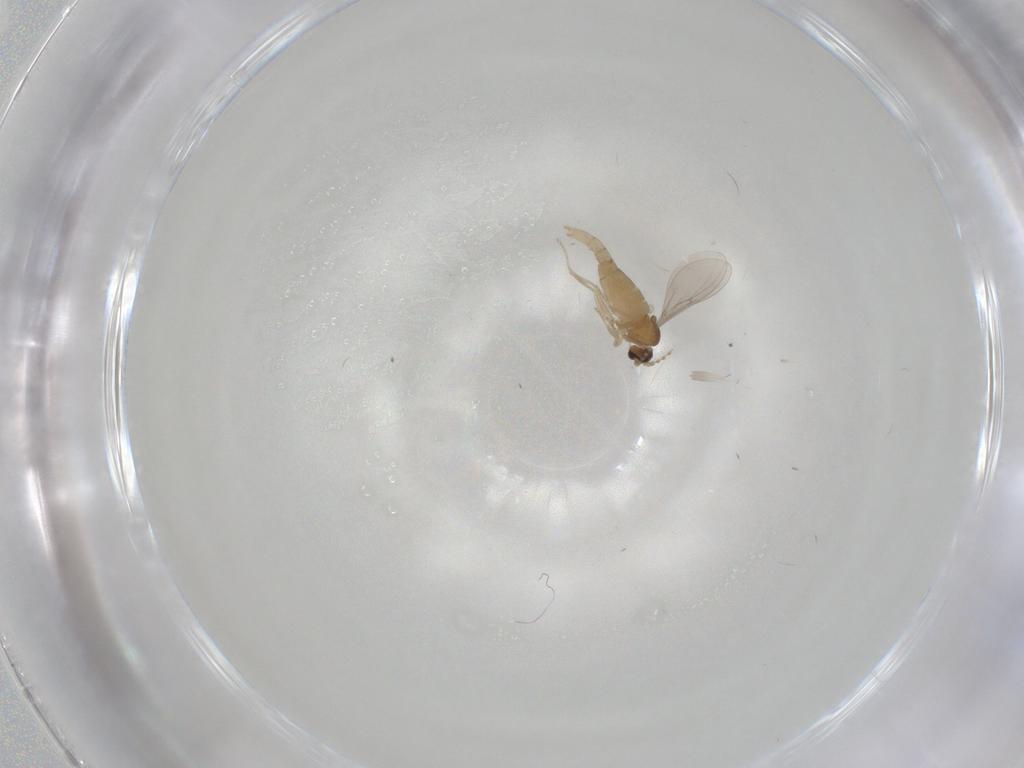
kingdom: Animalia
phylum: Arthropoda
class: Insecta
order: Diptera
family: Cecidomyiidae
